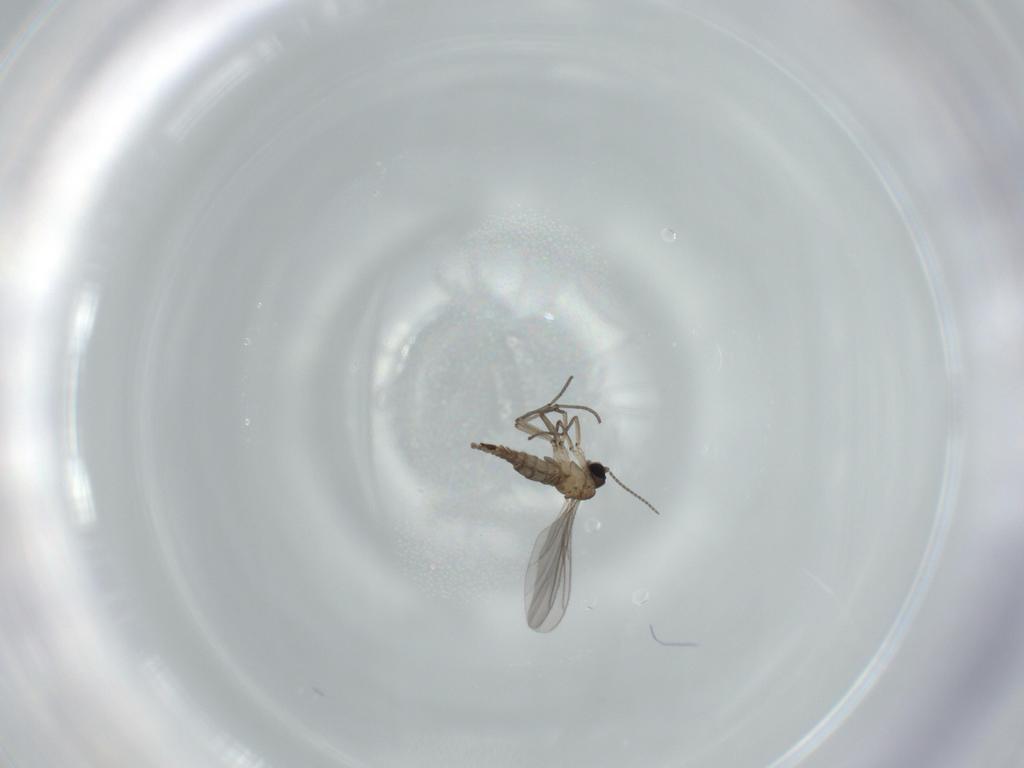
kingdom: Animalia
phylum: Arthropoda
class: Insecta
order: Diptera
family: Sciaridae
